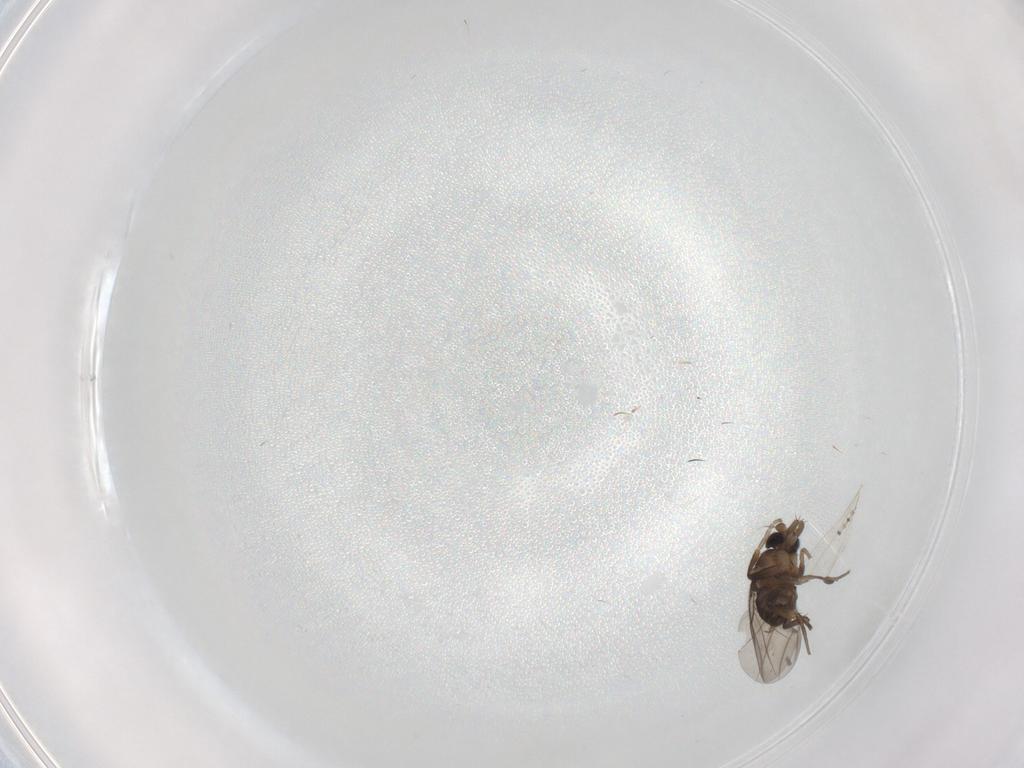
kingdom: Animalia
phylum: Arthropoda
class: Insecta
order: Diptera
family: Phoridae
